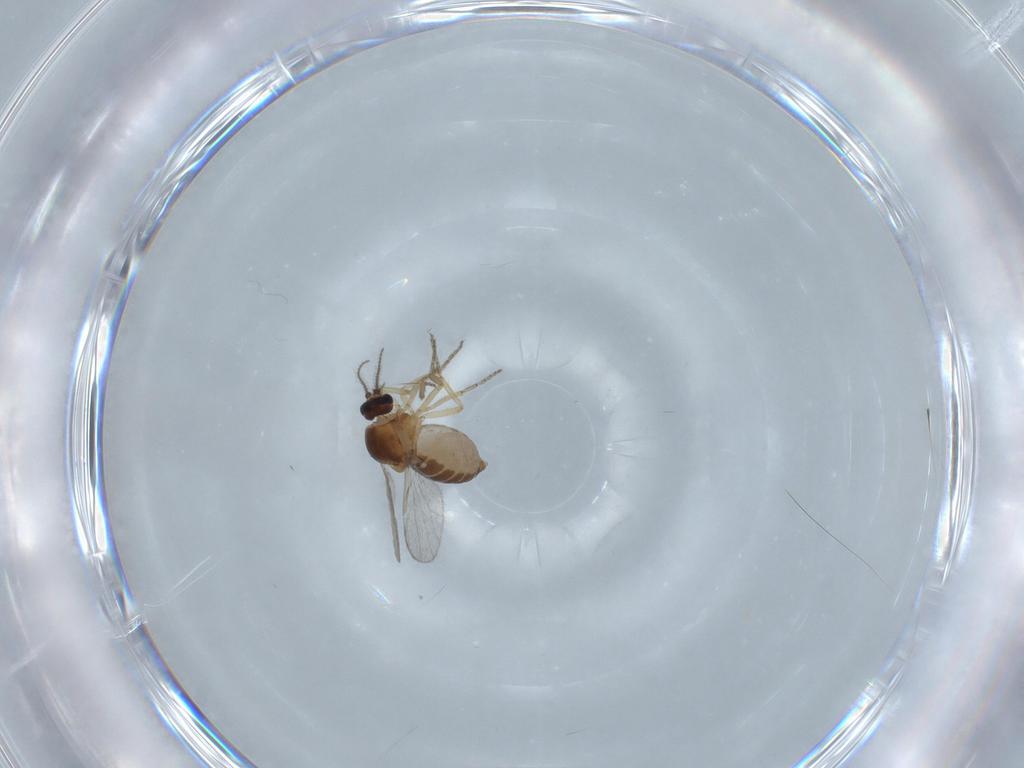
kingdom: Animalia
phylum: Arthropoda
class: Insecta
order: Diptera
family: Ceratopogonidae
